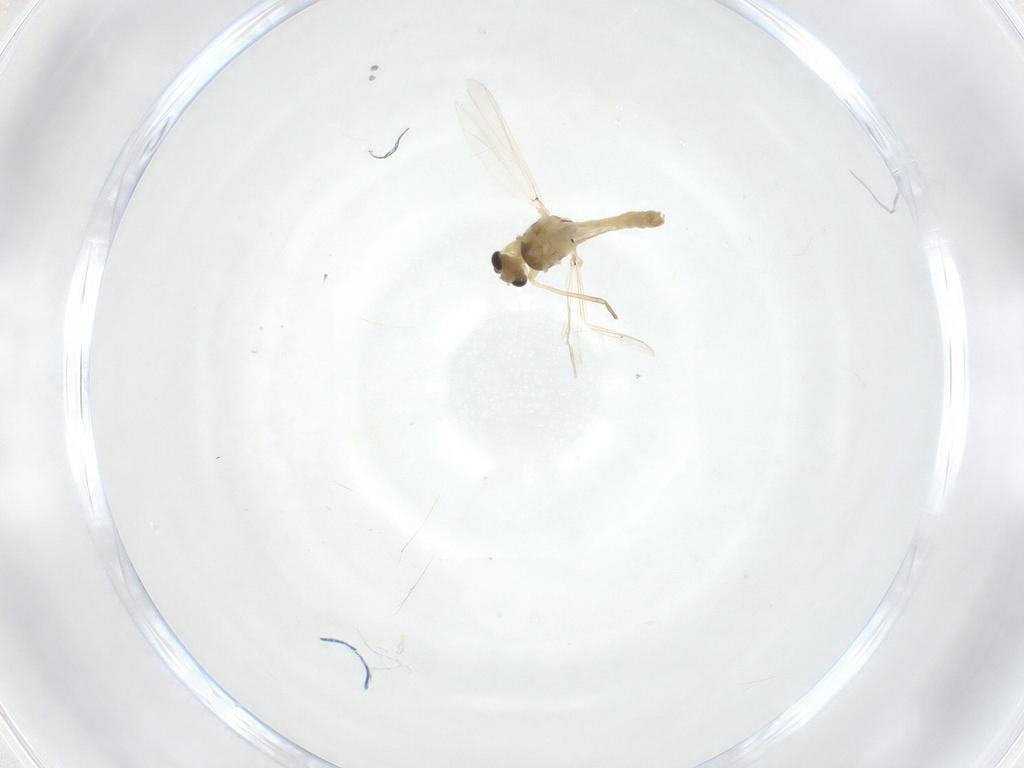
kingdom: Animalia
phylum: Arthropoda
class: Insecta
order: Diptera
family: Chironomidae
